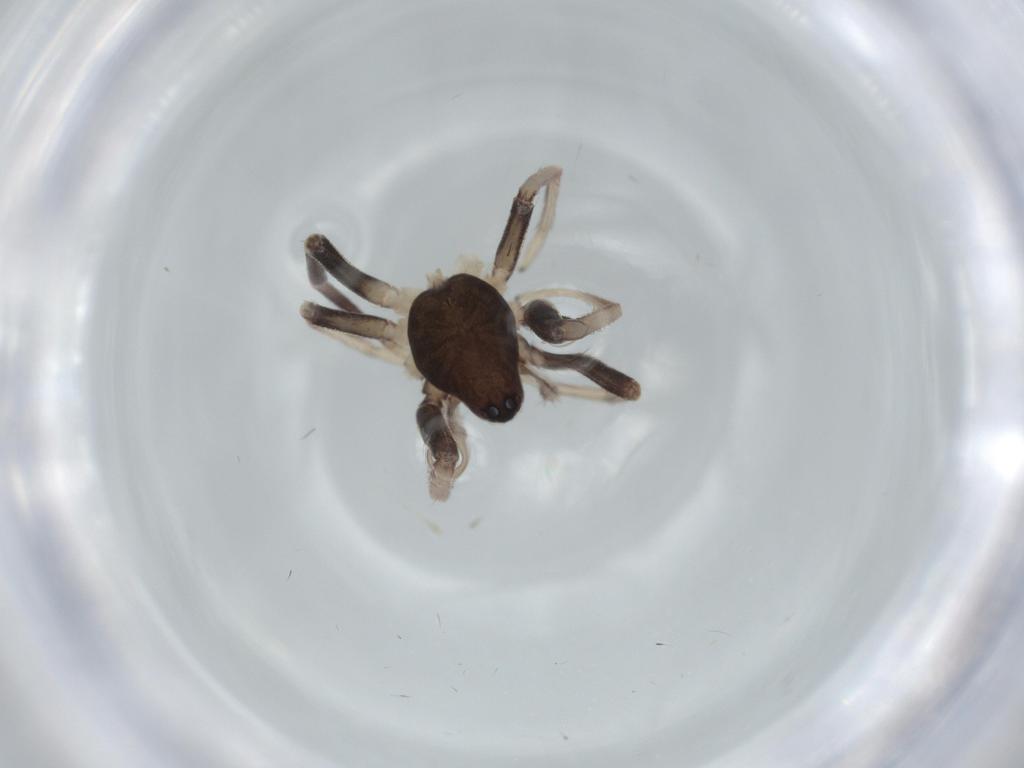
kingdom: Animalia
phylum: Arthropoda
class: Arachnida
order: Araneae
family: Corinnidae
